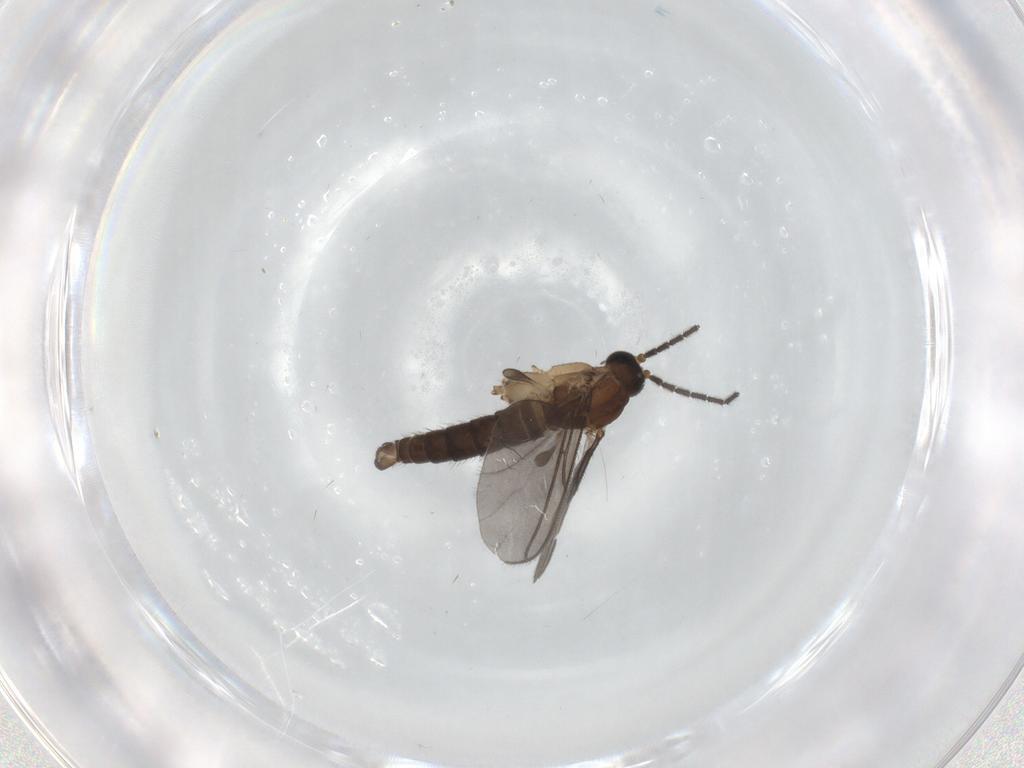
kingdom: Animalia
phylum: Arthropoda
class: Insecta
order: Diptera
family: Sciaridae
